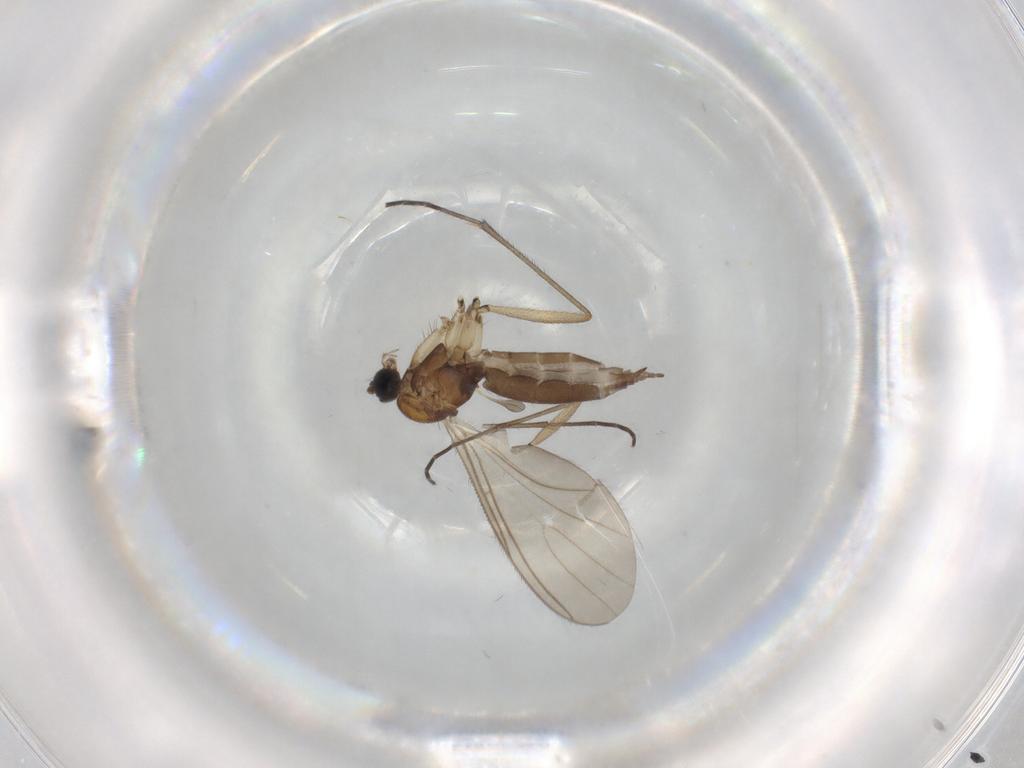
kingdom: Animalia
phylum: Arthropoda
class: Insecta
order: Diptera
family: Sciaridae
